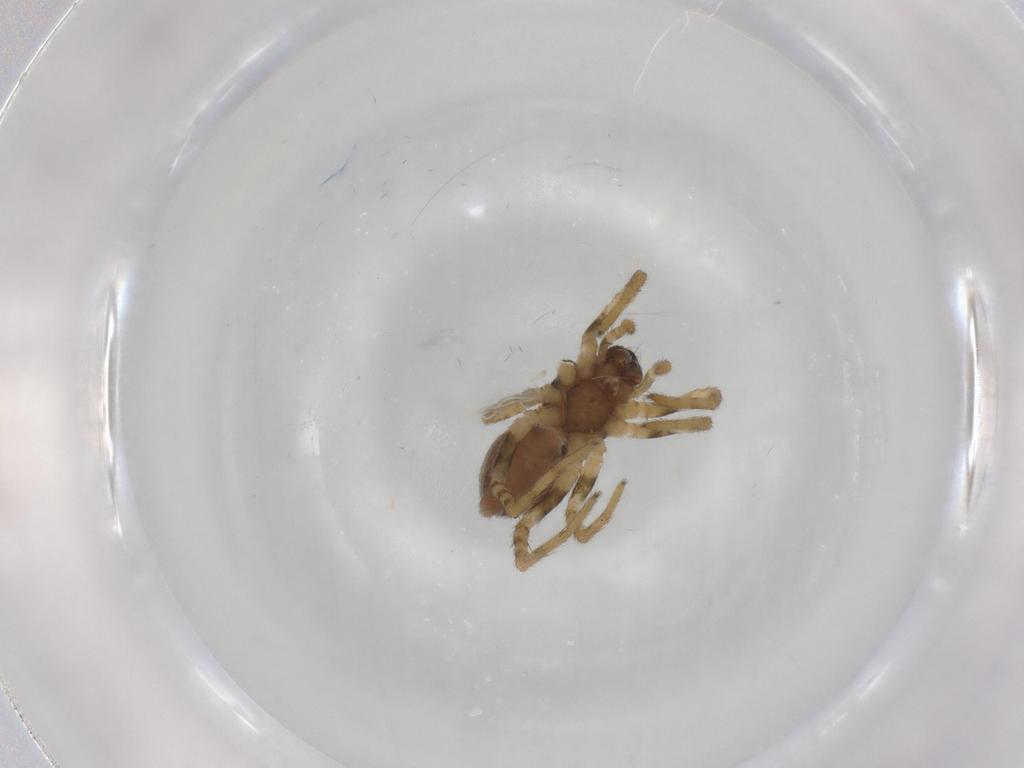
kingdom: Animalia
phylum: Arthropoda
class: Arachnida
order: Araneae
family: Lycosidae
